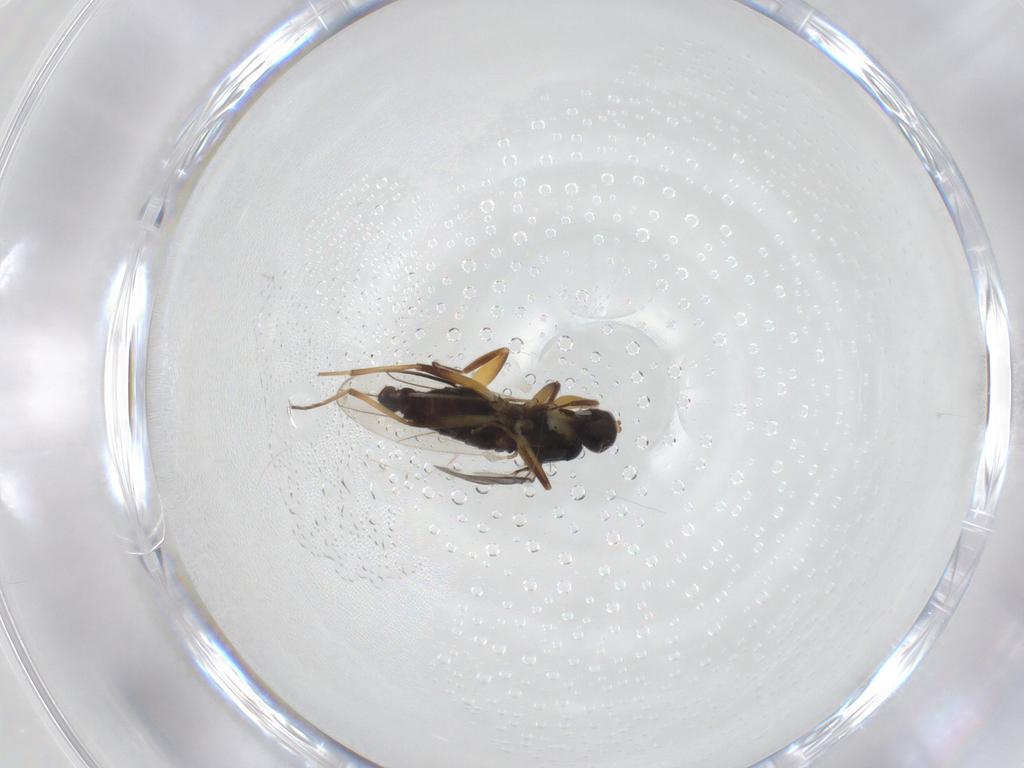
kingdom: Animalia
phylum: Arthropoda
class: Insecta
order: Diptera
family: Hybotidae
